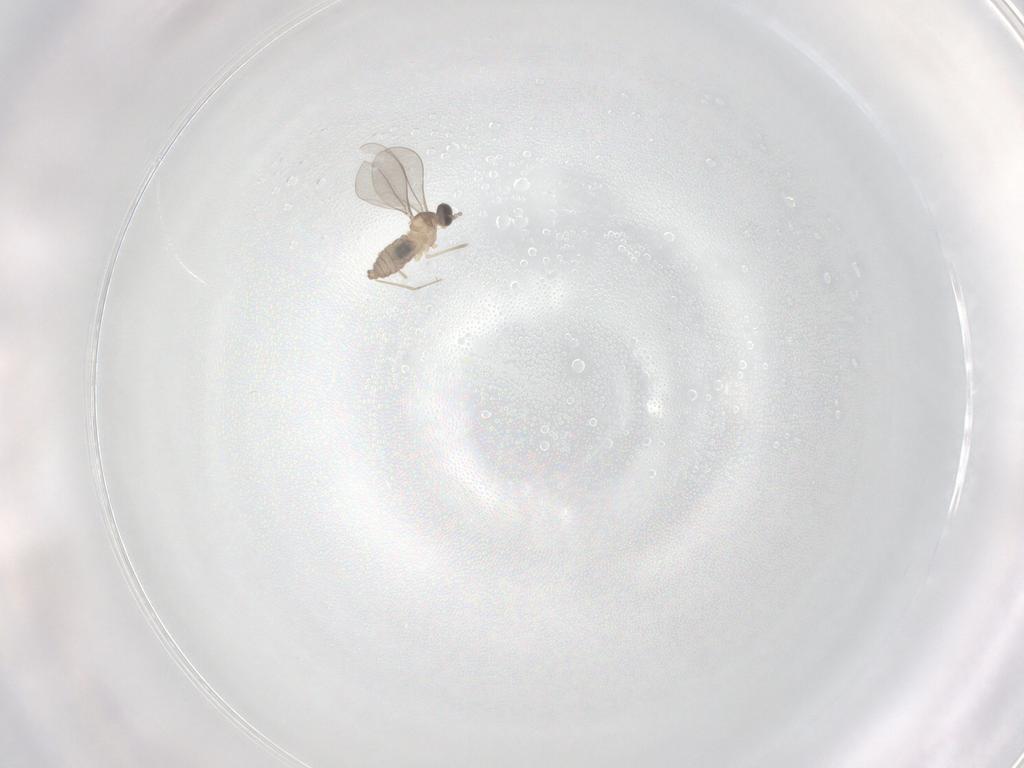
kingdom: Animalia
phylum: Arthropoda
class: Insecta
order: Diptera
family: Cecidomyiidae
